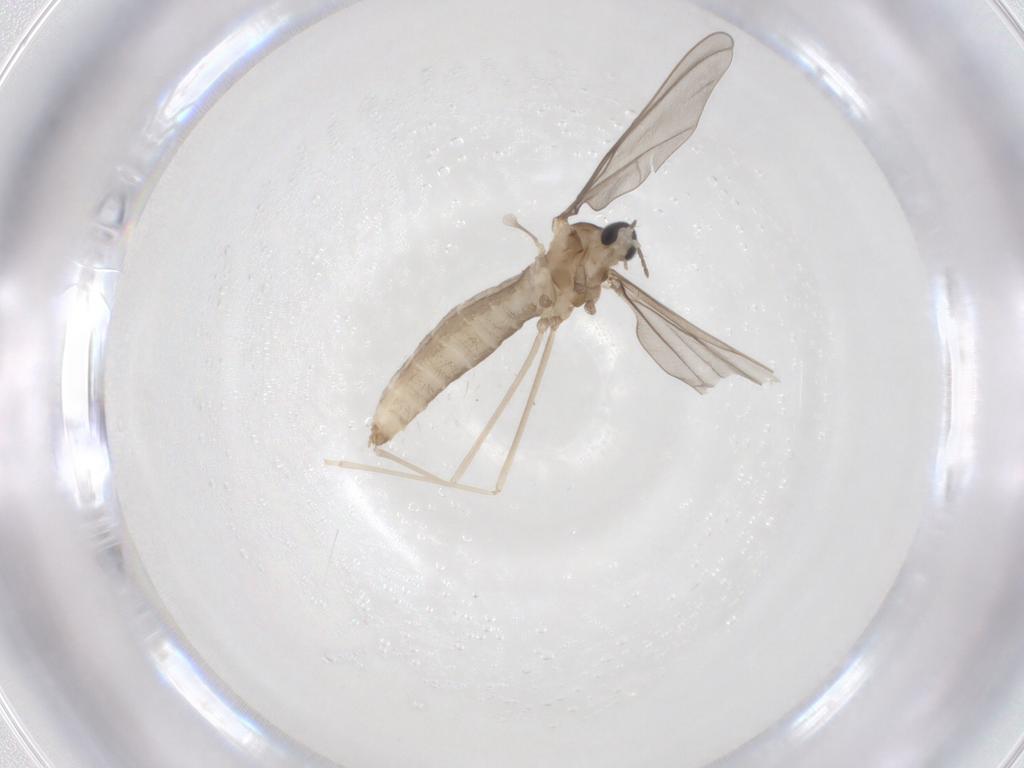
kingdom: Animalia
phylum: Arthropoda
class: Insecta
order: Diptera
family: Cecidomyiidae
